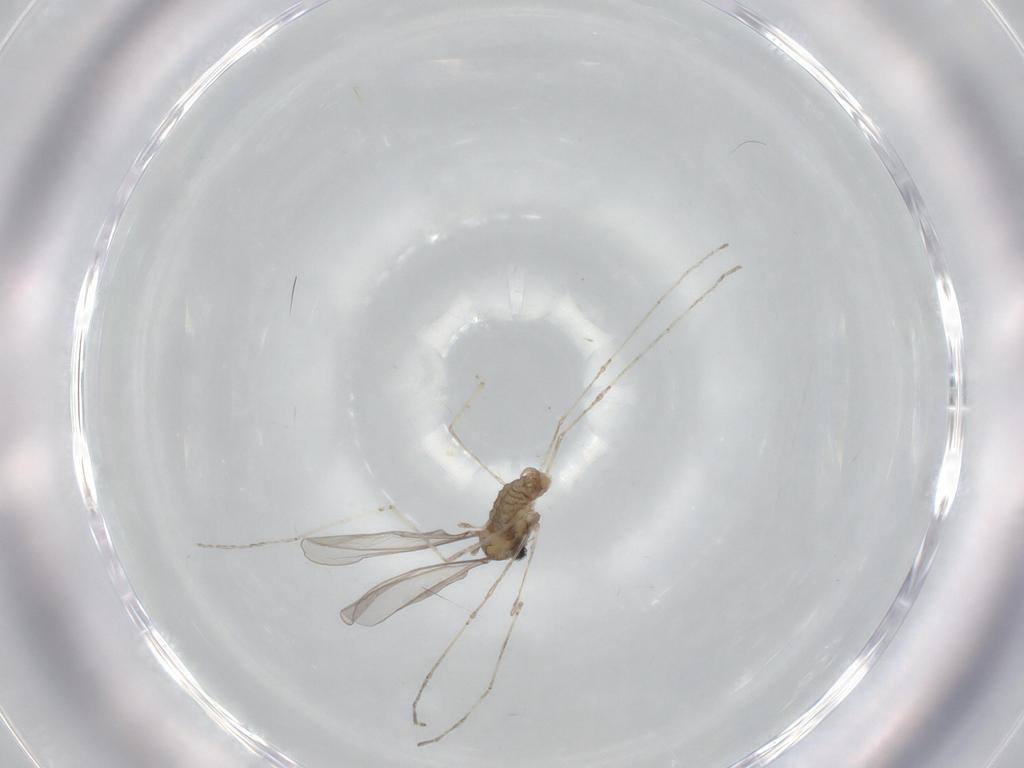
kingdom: Animalia
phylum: Arthropoda
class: Insecta
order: Diptera
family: Cecidomyiidae
